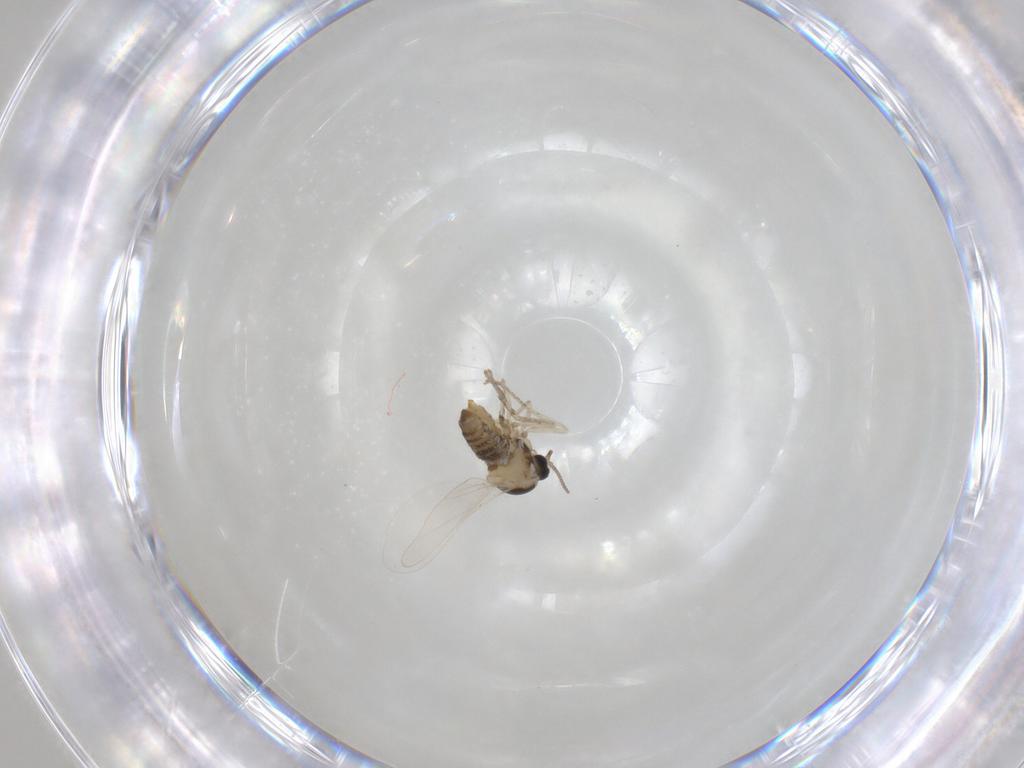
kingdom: Animalia
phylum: Arthropoda
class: Insecta
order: Diptera
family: Cecidomyiidae
